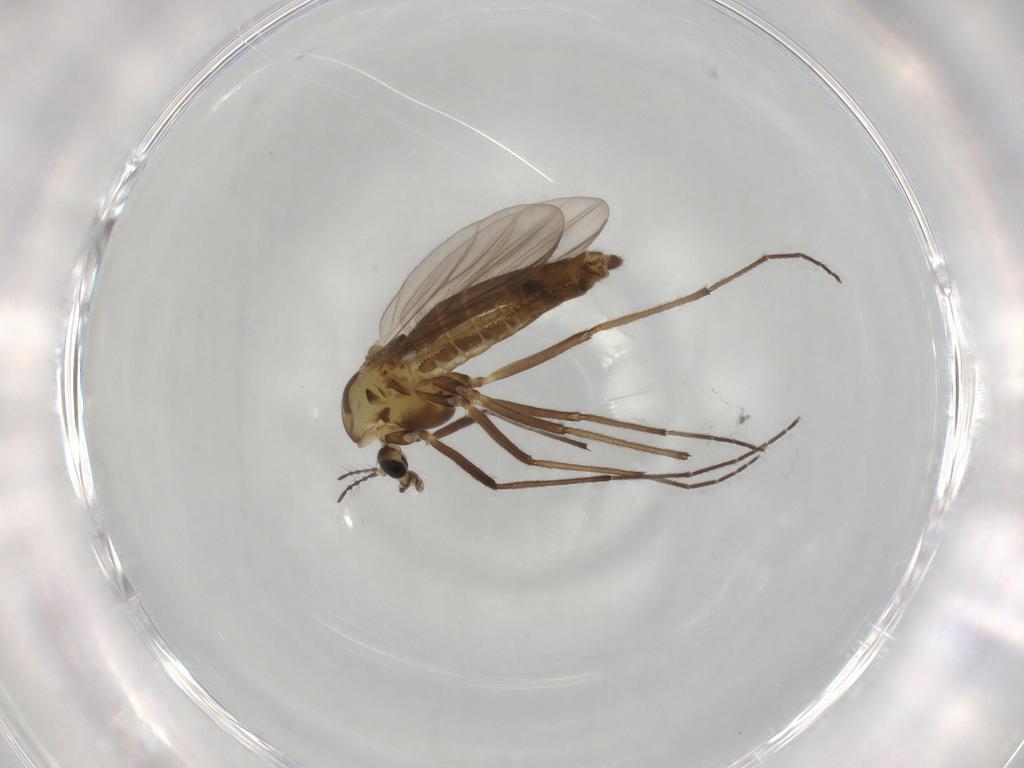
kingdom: Animalia
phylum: Arthropoda
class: Insecta
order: Diptera
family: Chironomidae
